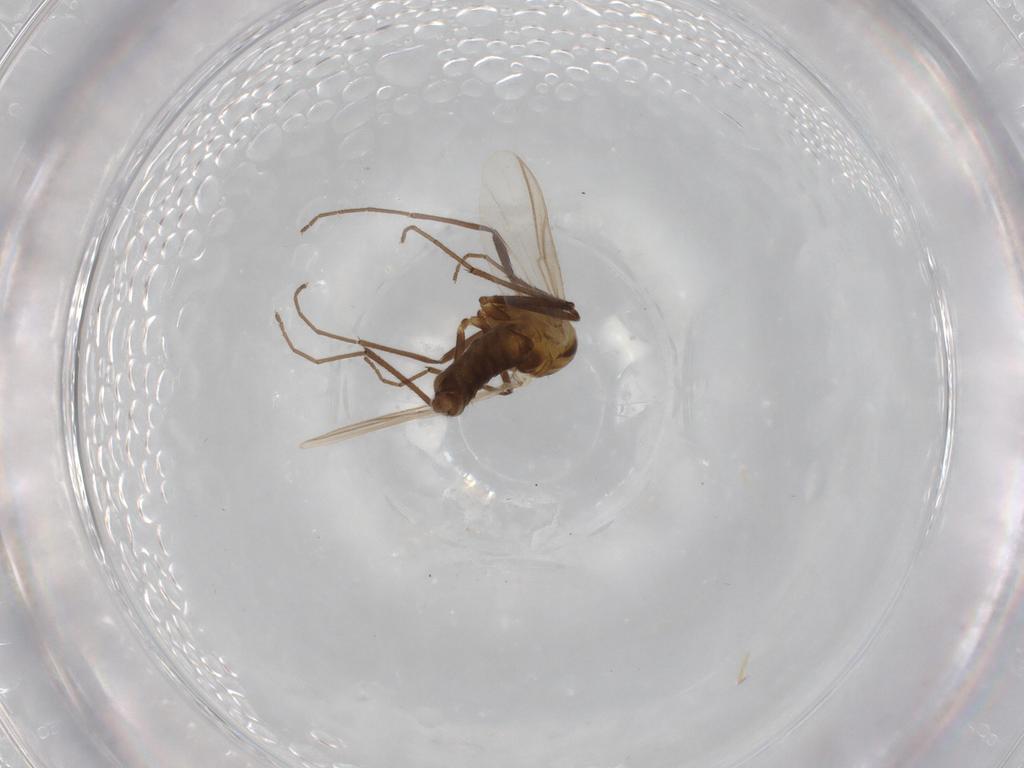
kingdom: Animalia
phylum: Arthropoda
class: Insecta
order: Diptera
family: Chironomidae
